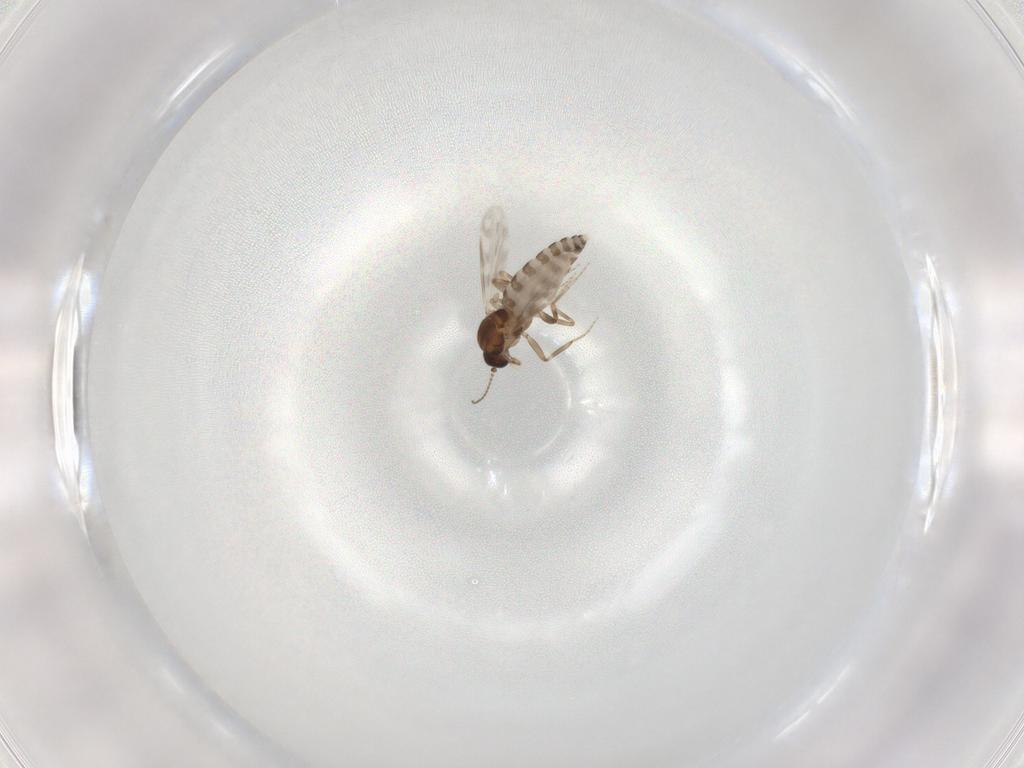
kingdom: Animalia
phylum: Arthropoda
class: Insecta
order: Diptera
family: Ceratopogonidae
